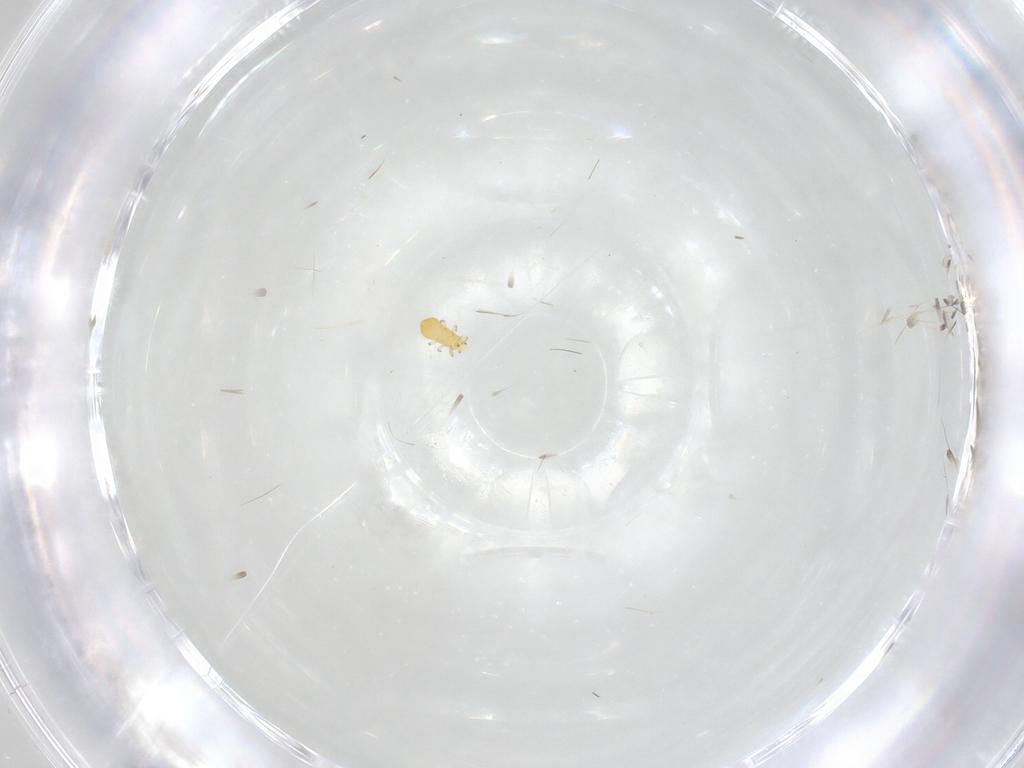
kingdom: Animalia
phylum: Arthropoda
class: Insecta
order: Thysanoptera
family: Thripidae
